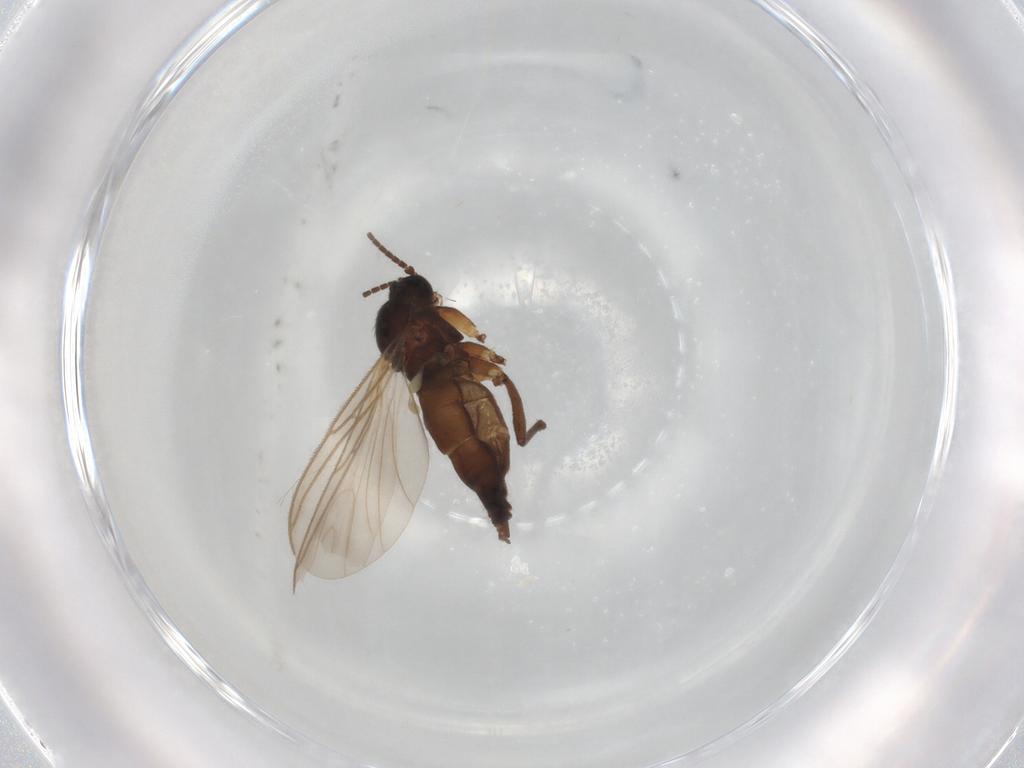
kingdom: Animalia
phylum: Arthropoda
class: Insecta
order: Diptera
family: Sciaridae
